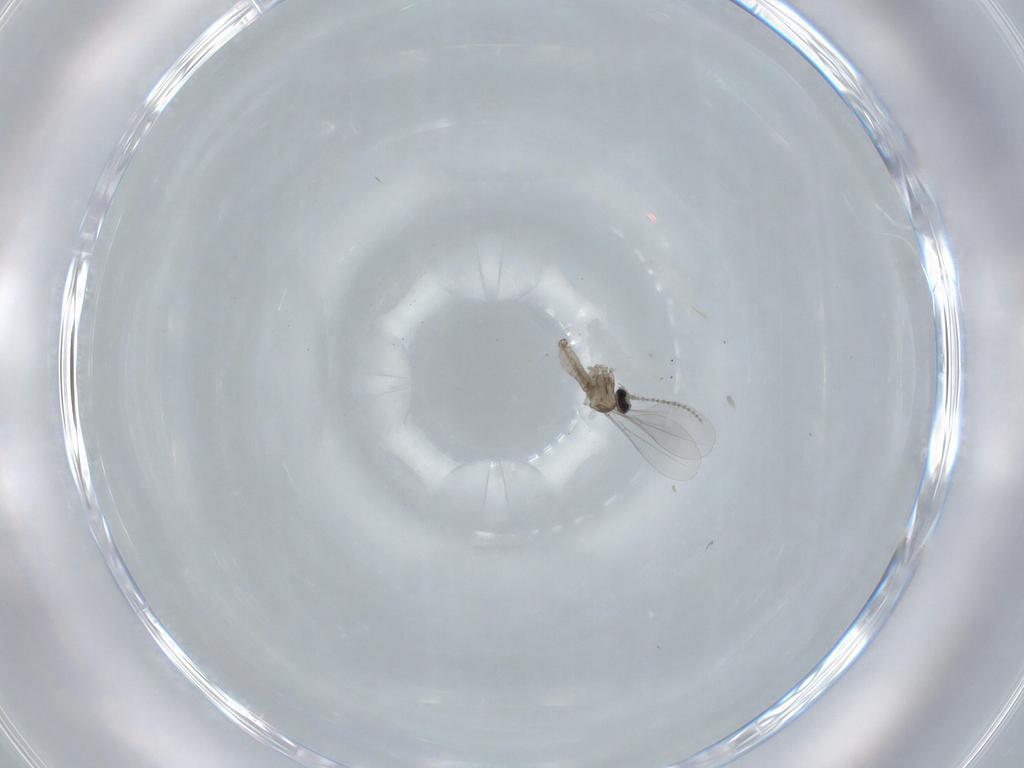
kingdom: Animalia
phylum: Arthropoda
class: Insecta
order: Diptera
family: Cecidomyiidae
